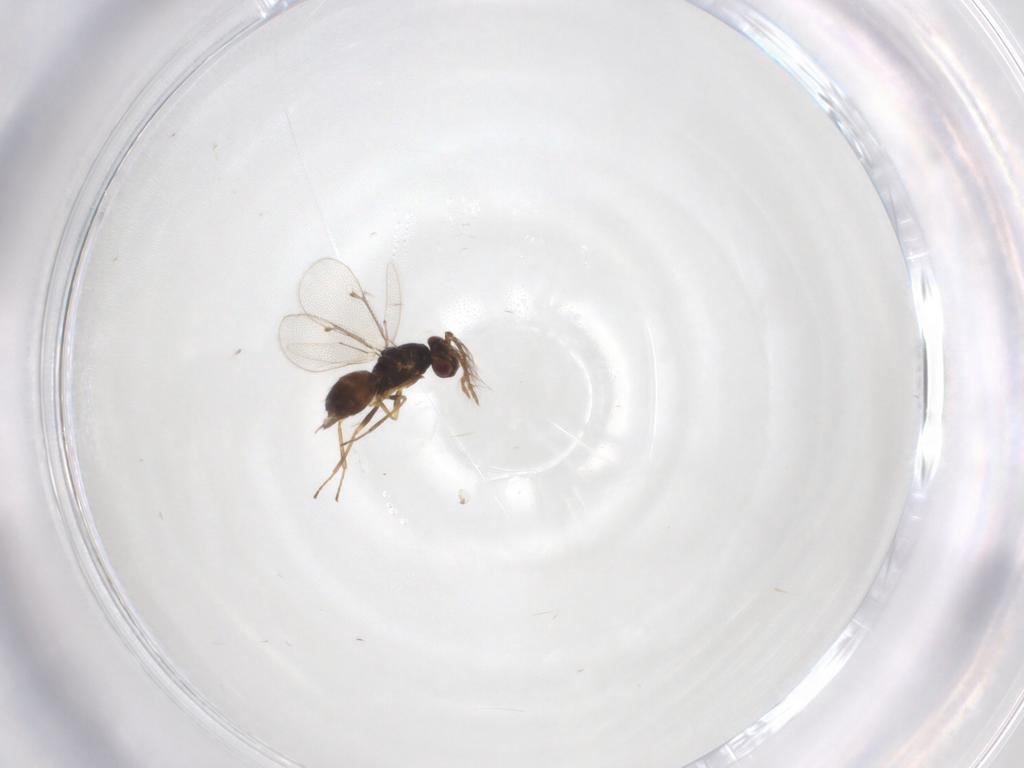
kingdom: Animalia
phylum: Arthropoda
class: Insecta
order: Hymenoptera
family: Eulophidae
